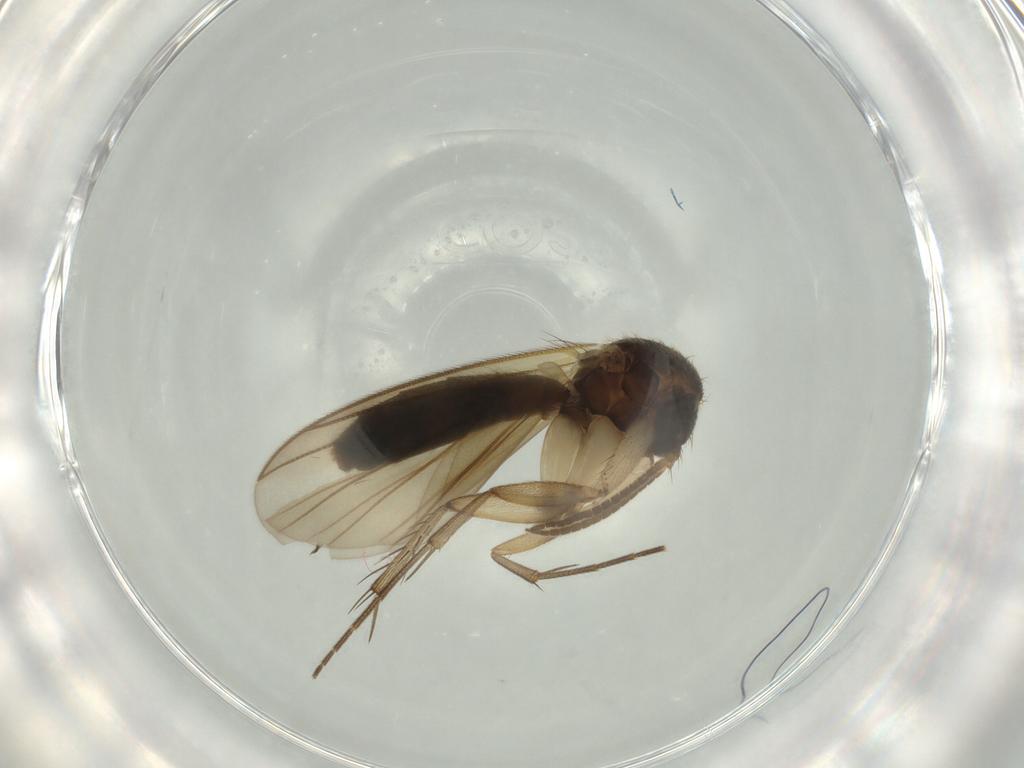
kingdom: Animalia
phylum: Arthropoda
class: Insecta
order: Diptera
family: Mycetophilidae
